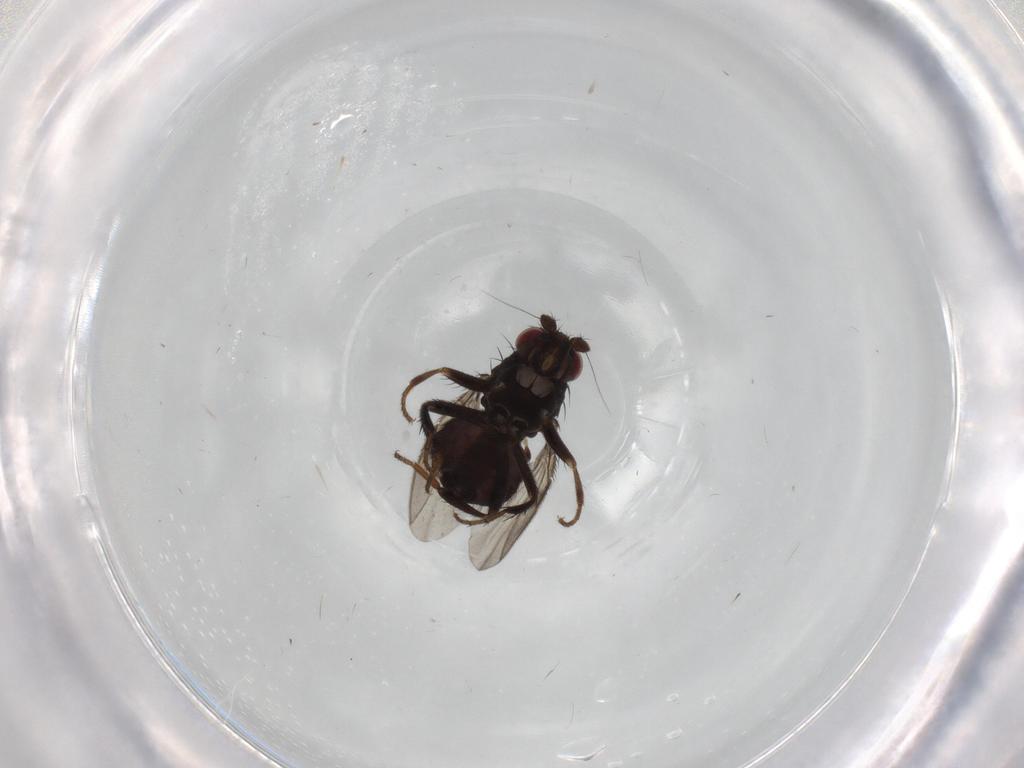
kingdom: Animalia
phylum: Arthropoda
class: Insecta
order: Diptera
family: Sphaeroceridae
